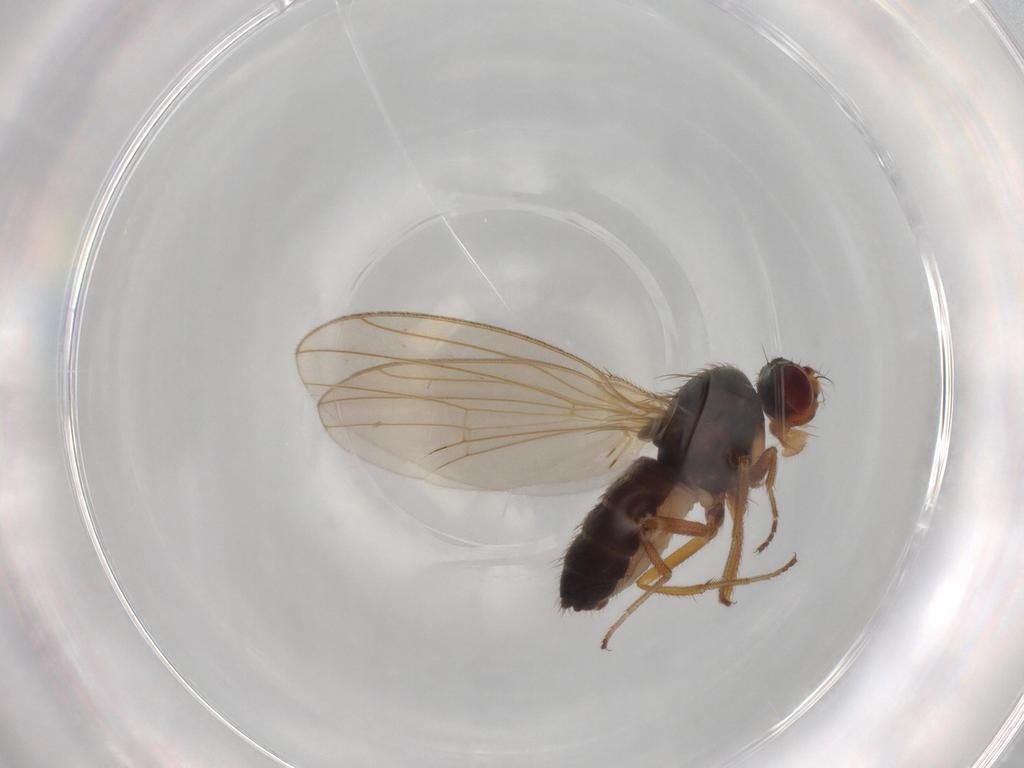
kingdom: Animalia
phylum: Arthropoda
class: Insecta
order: Diptera
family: Drosophilidae
